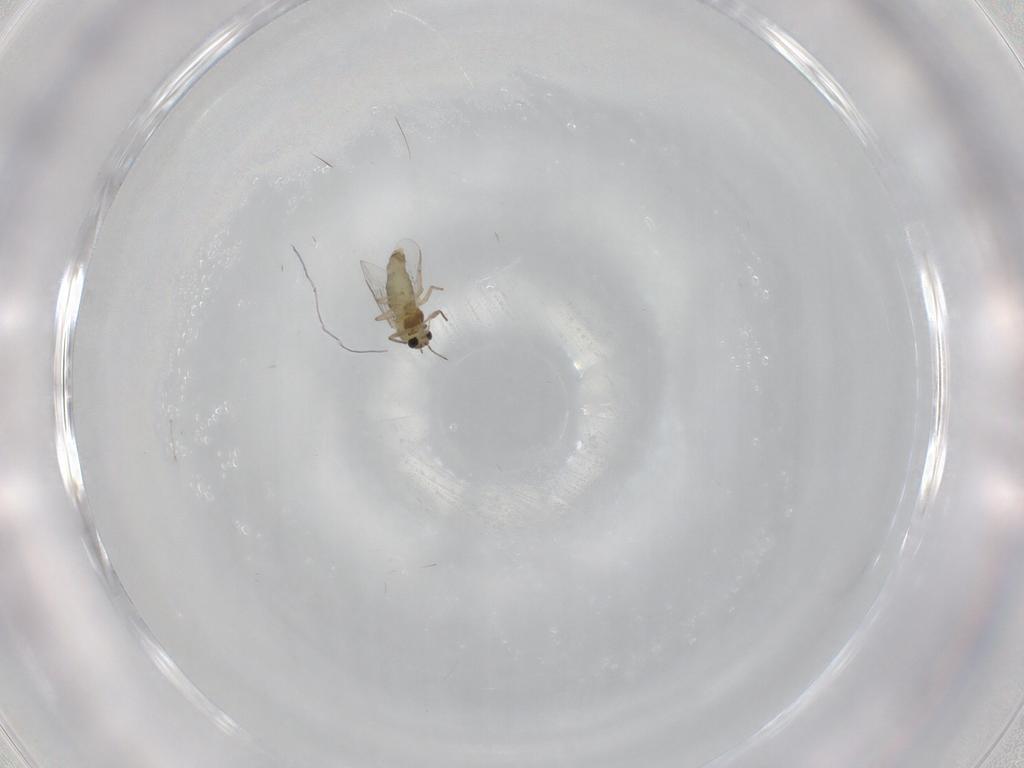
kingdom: Animalia
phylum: Arthropoda
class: Insecta
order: Diptera
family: Chironomidae
